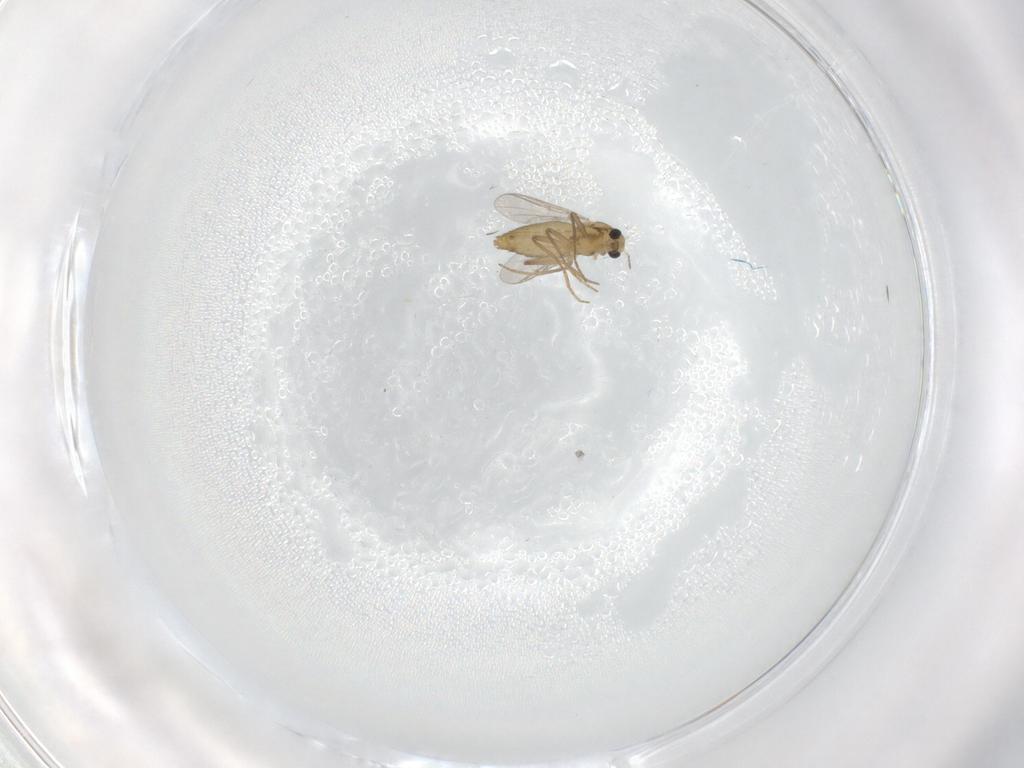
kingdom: Animalia
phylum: Arthropoda
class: Insecta
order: Diptera
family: Chironomidae
